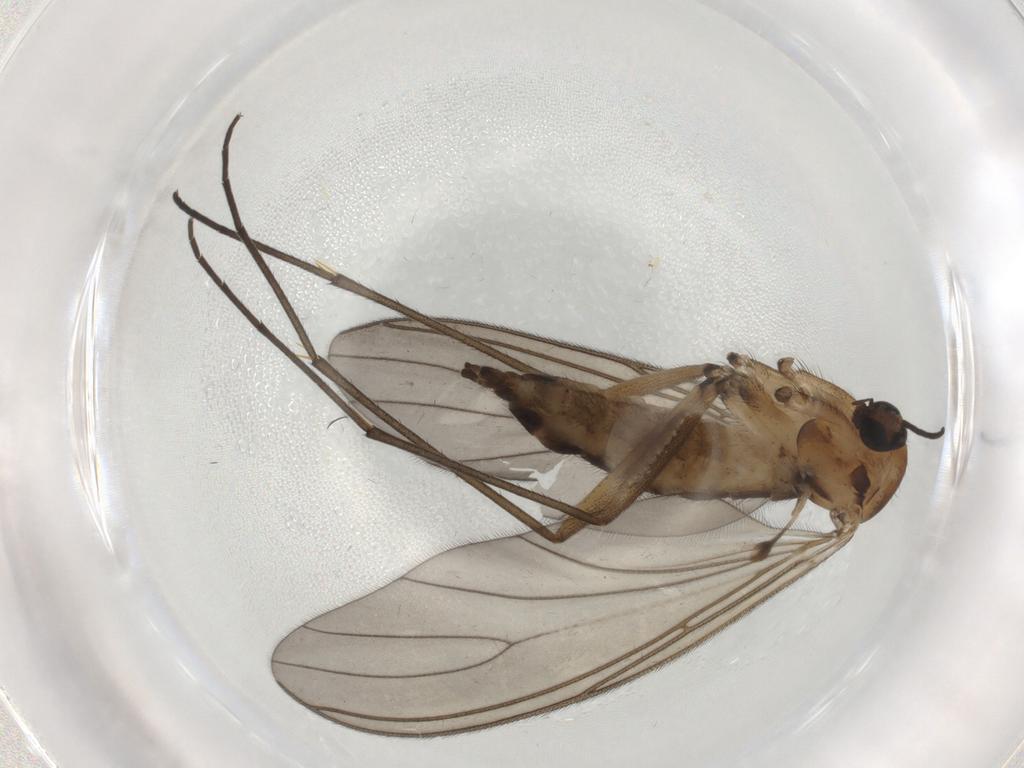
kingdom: Animalia
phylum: Arthropoda
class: Insecta
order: Diptera
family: Sciaridae
